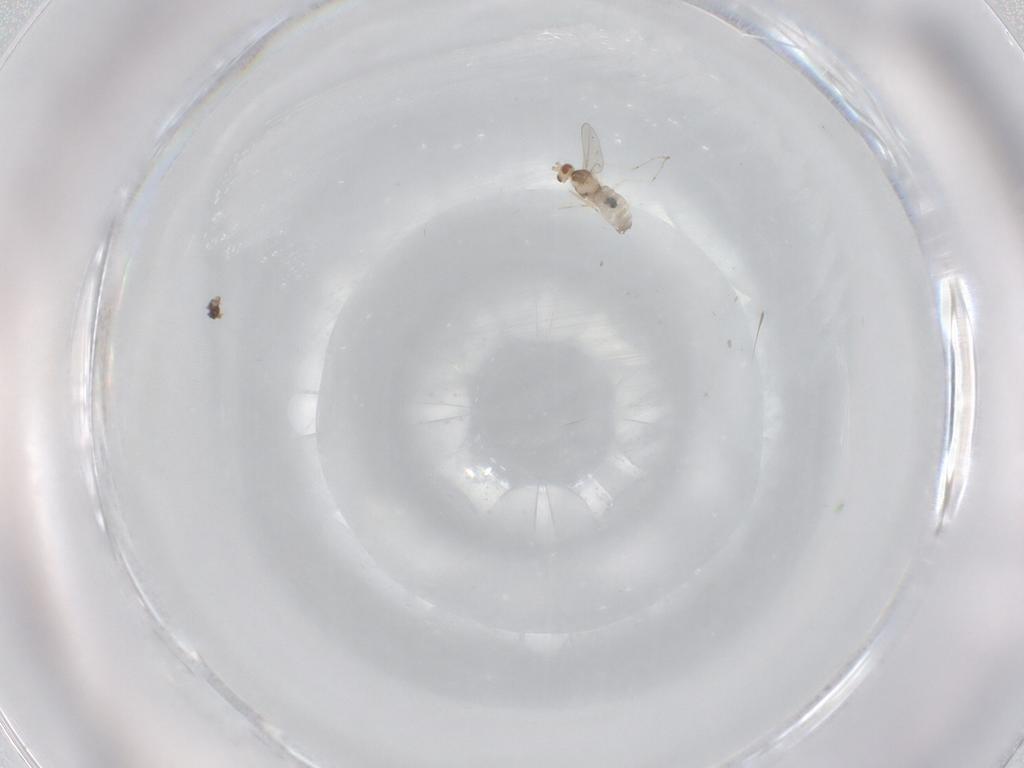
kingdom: Animalia
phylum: Arthropoda
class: Insecta
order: Diptera
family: Cecidomyiidae
